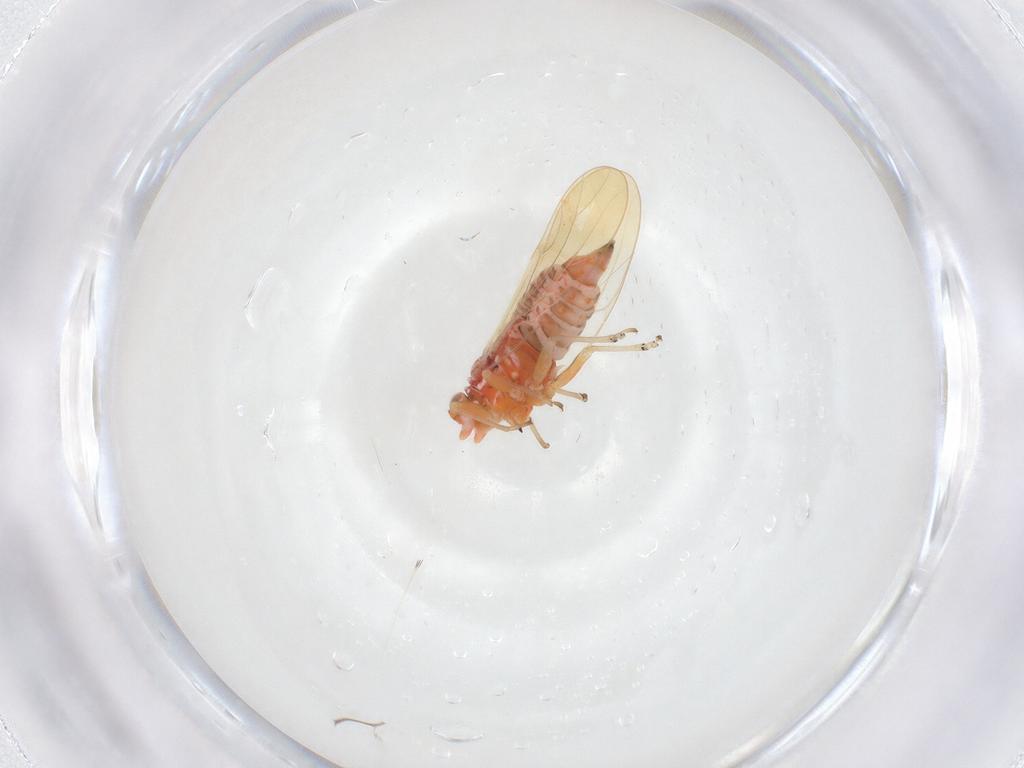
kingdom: Animalia
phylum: Arthropoda
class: Insecta
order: Hemiptera
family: Psyllidae
